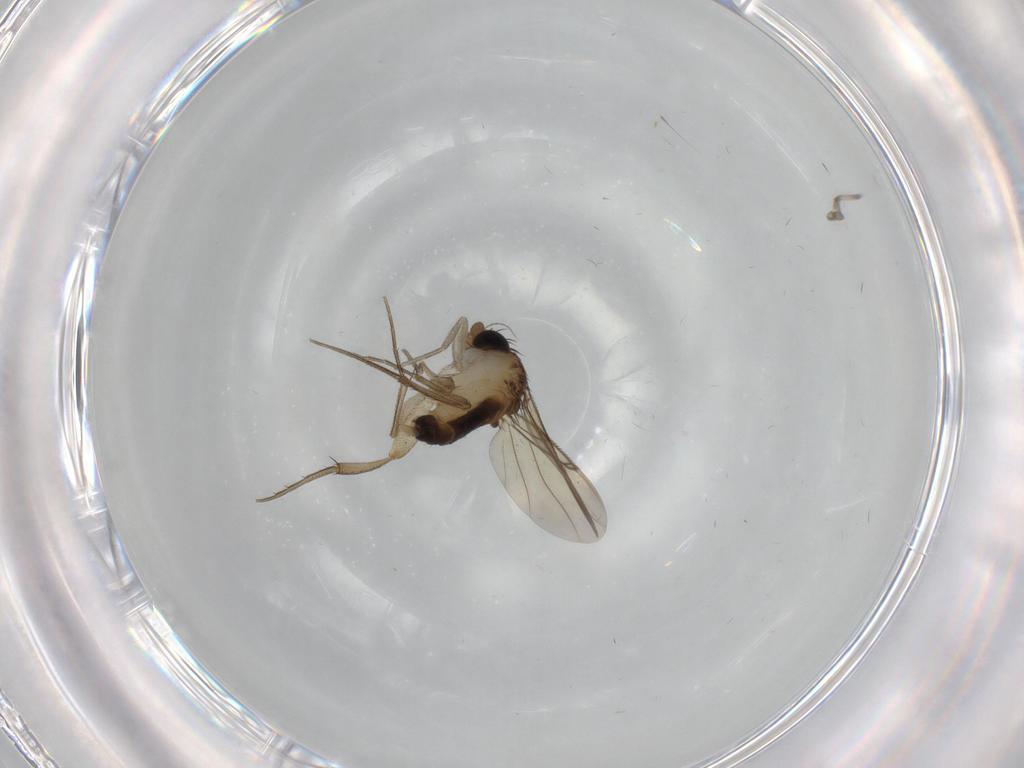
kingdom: Animalia
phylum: Arthropoda
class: Insecta
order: Diptera
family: Phoridae
